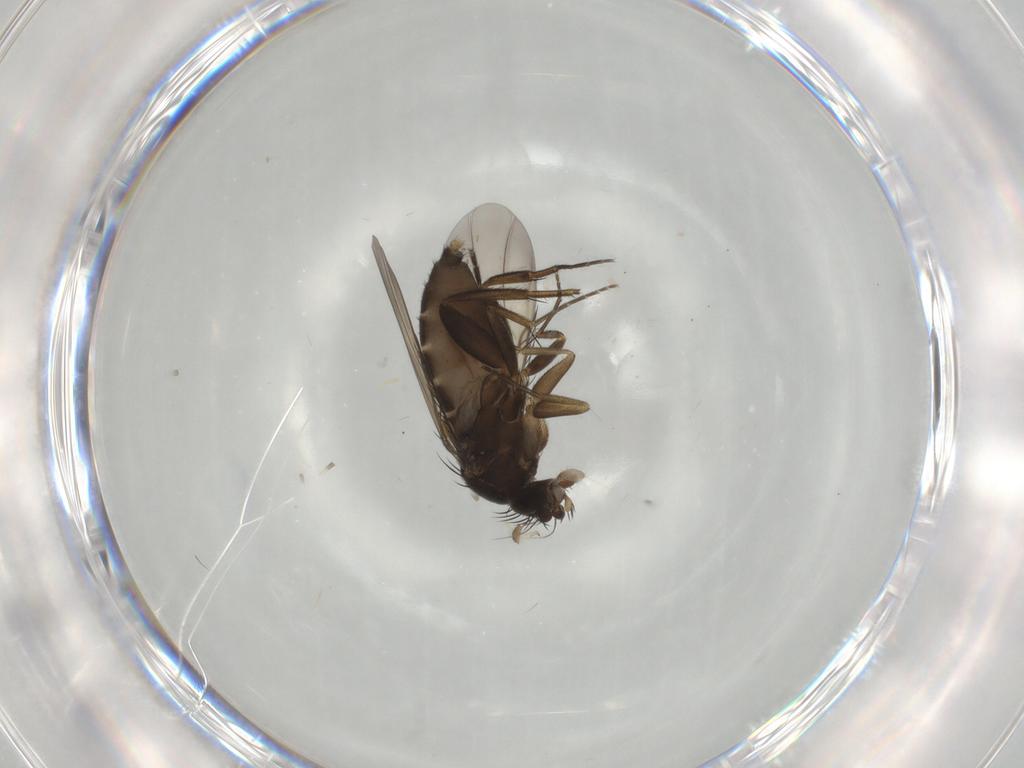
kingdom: Animalia
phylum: Arthropoda
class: Insecta
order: Diptera
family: Phoridae
